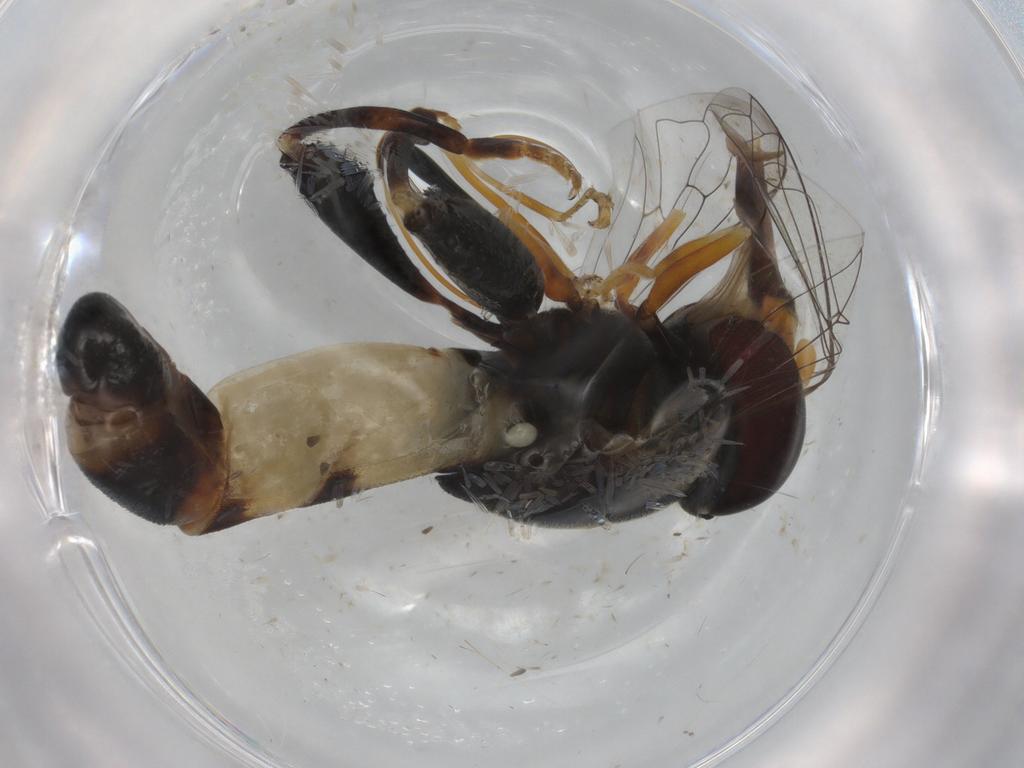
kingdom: Animalia
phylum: Arthropoda
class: Insecta
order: Diptera
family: Syrphidae
